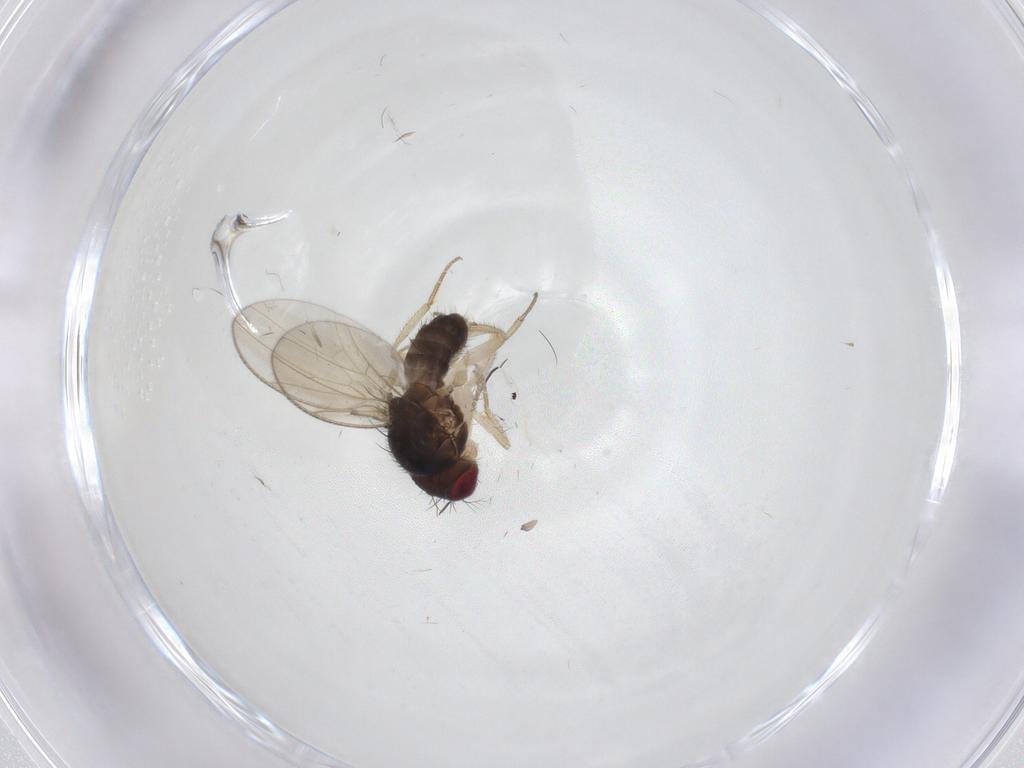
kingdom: Animalia
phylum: Arthropoda
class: Insecta
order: Diptera
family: Drosophilidae
